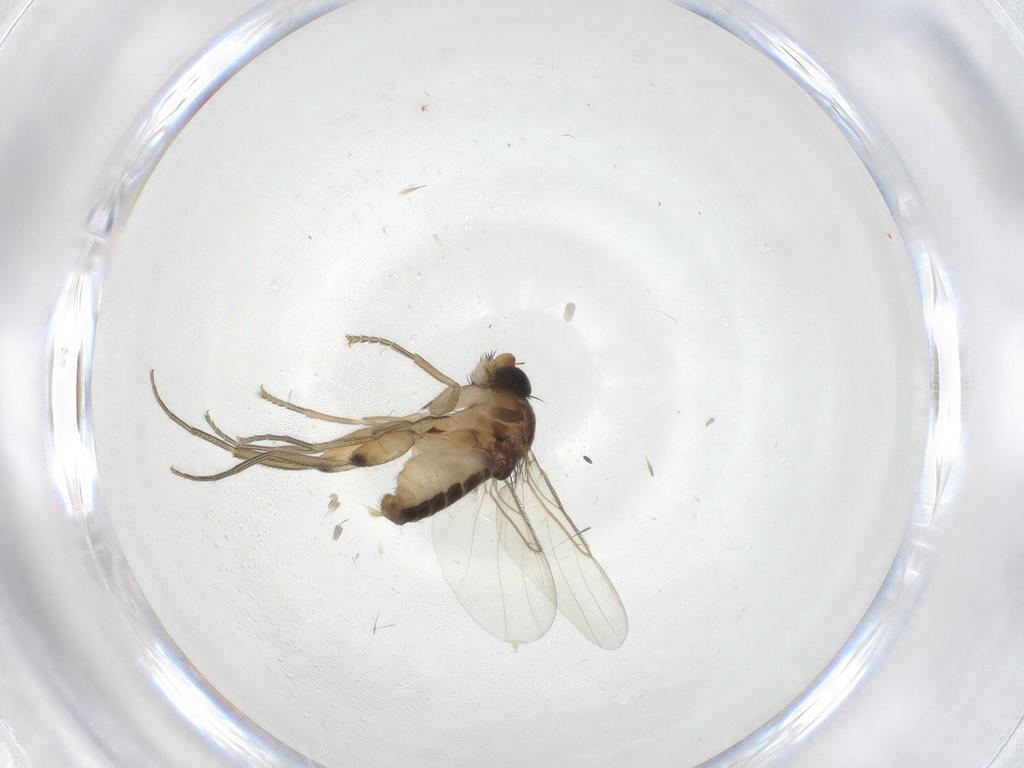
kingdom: Animalia
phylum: Arthropoda
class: Insecta
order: Diptera
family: Phoridae
